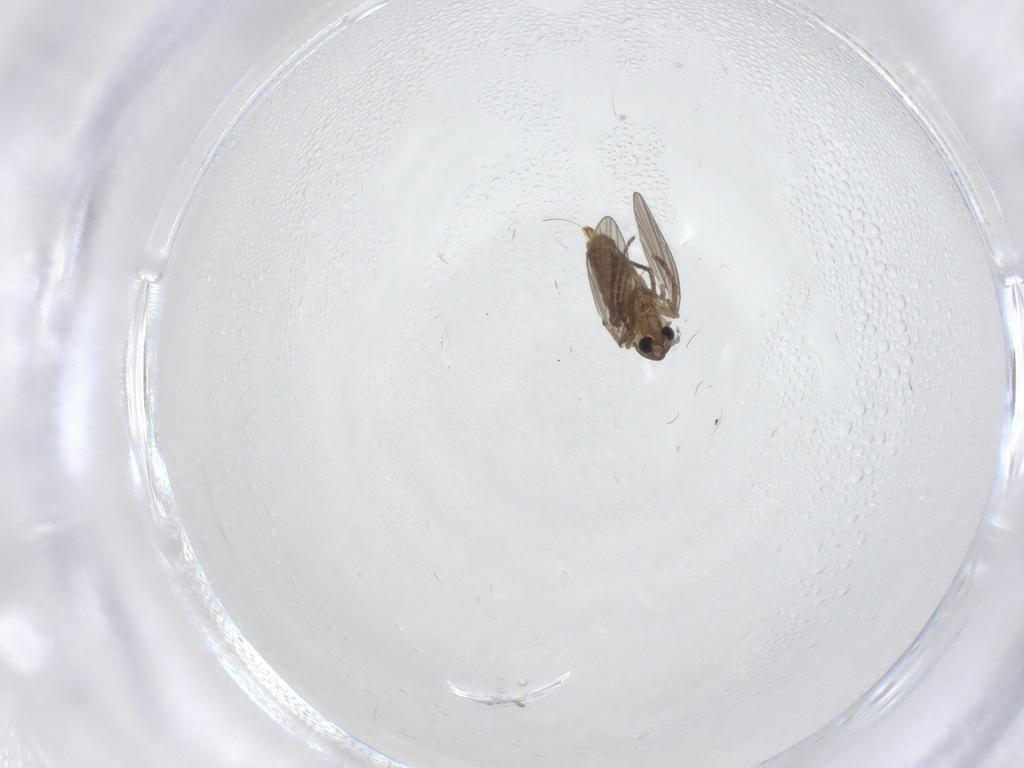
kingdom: Animalia
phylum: Arthropoda
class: Insecta
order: Diptera
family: Sciaridae
